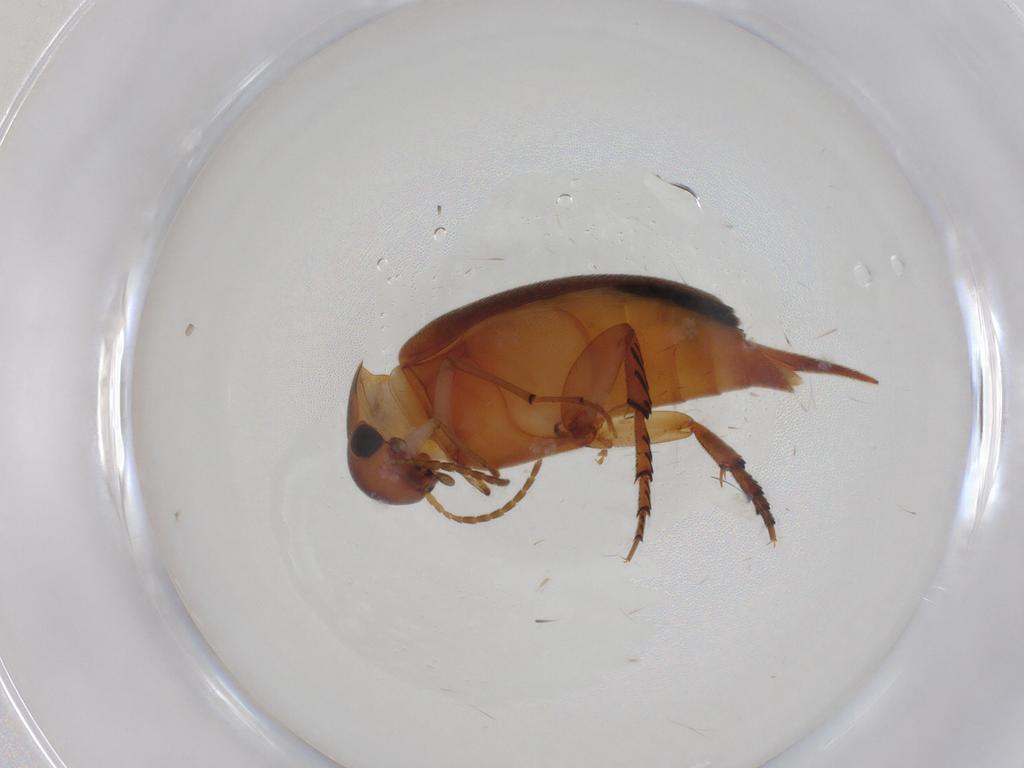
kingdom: Animalia
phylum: Arthropoda
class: Insecta
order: Coleoptera
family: Mordellidae
